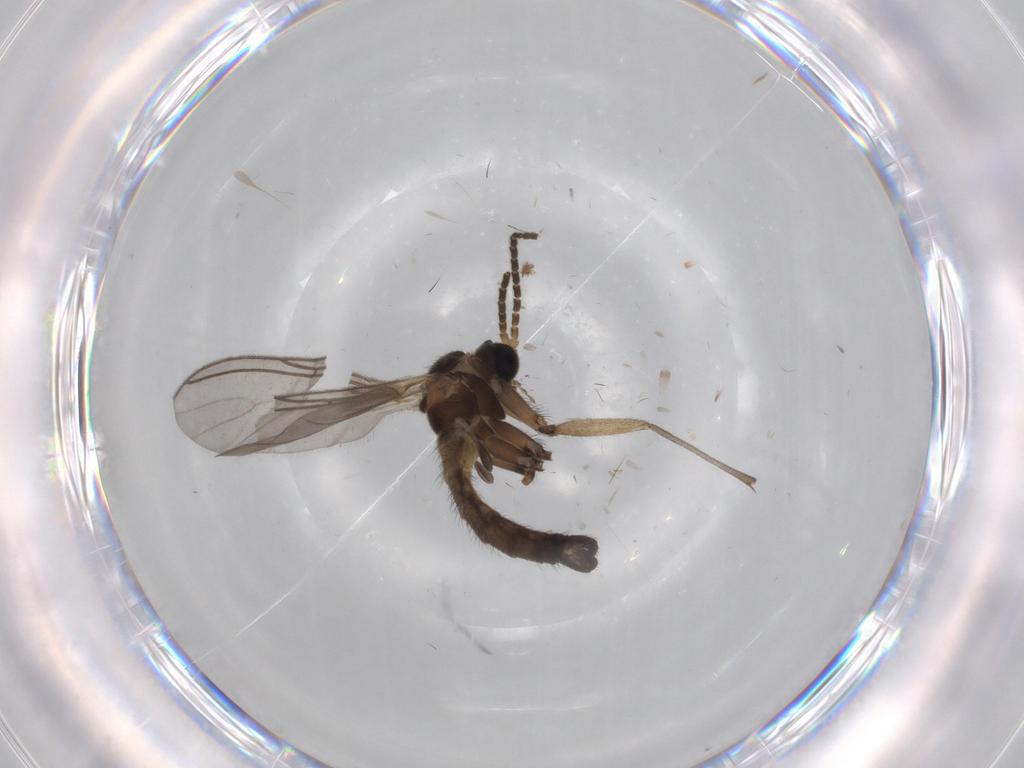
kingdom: Animalia
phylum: Arthropoda
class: Insecta
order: Diptera
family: Sciaridae
